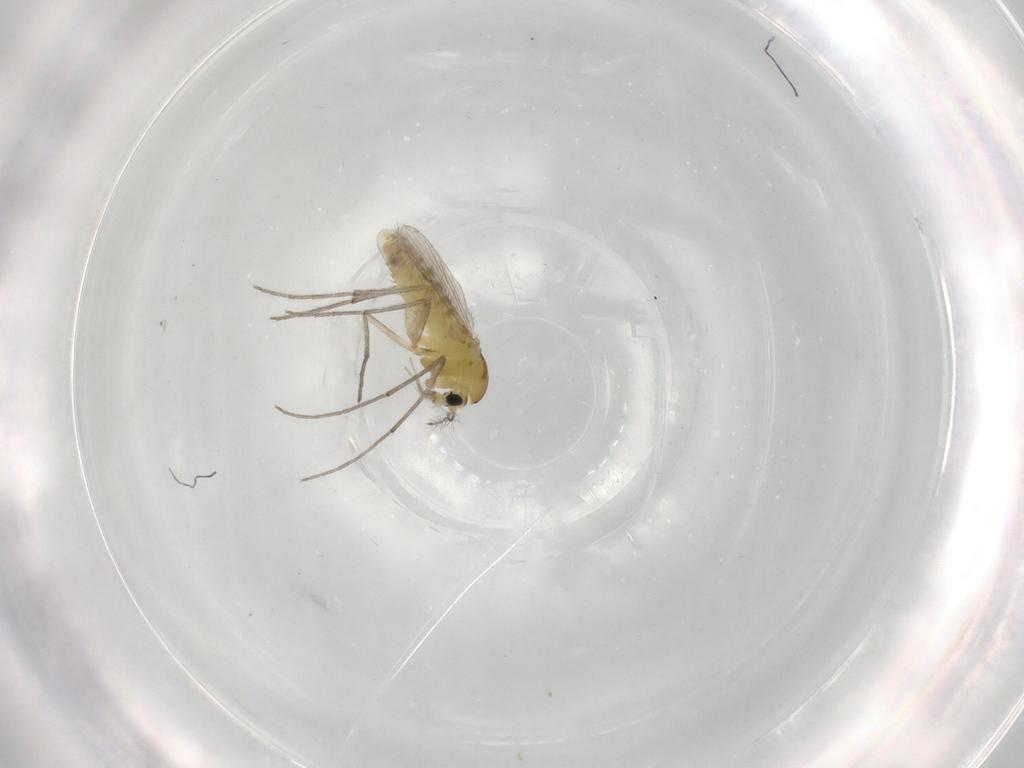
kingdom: Animalia
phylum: Arthropoda
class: Insecta
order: Diptera
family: Chironomidae
